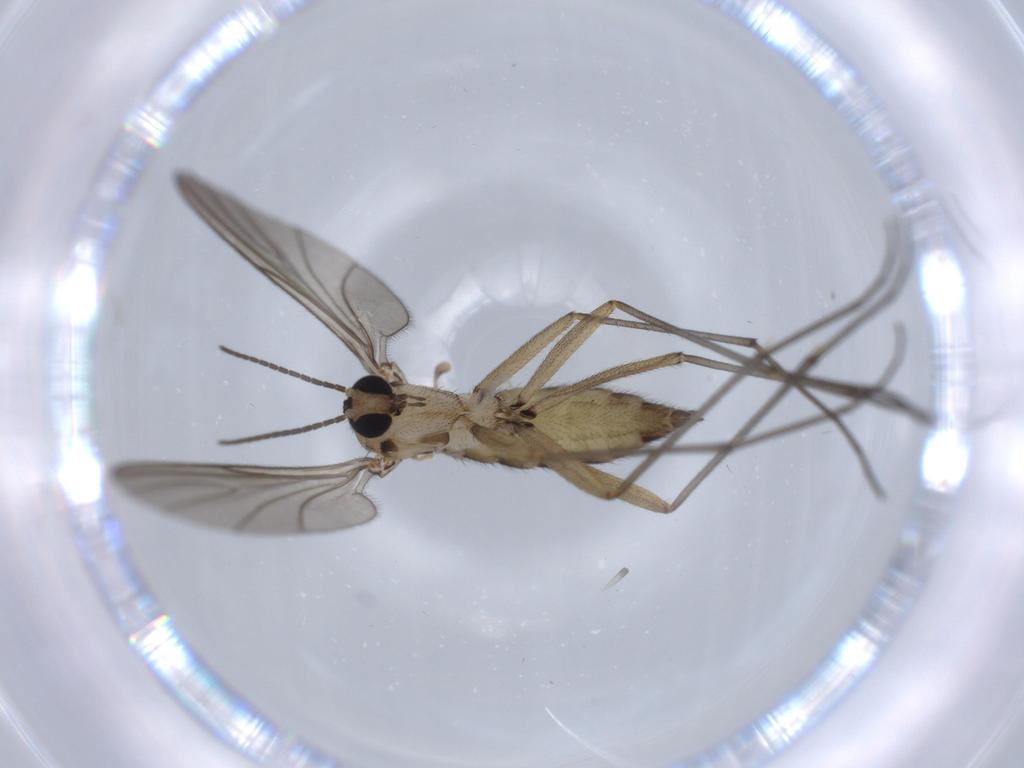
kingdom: Animalia
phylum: Arthropoda
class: Insecta
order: Diptera
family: Sciaridae
